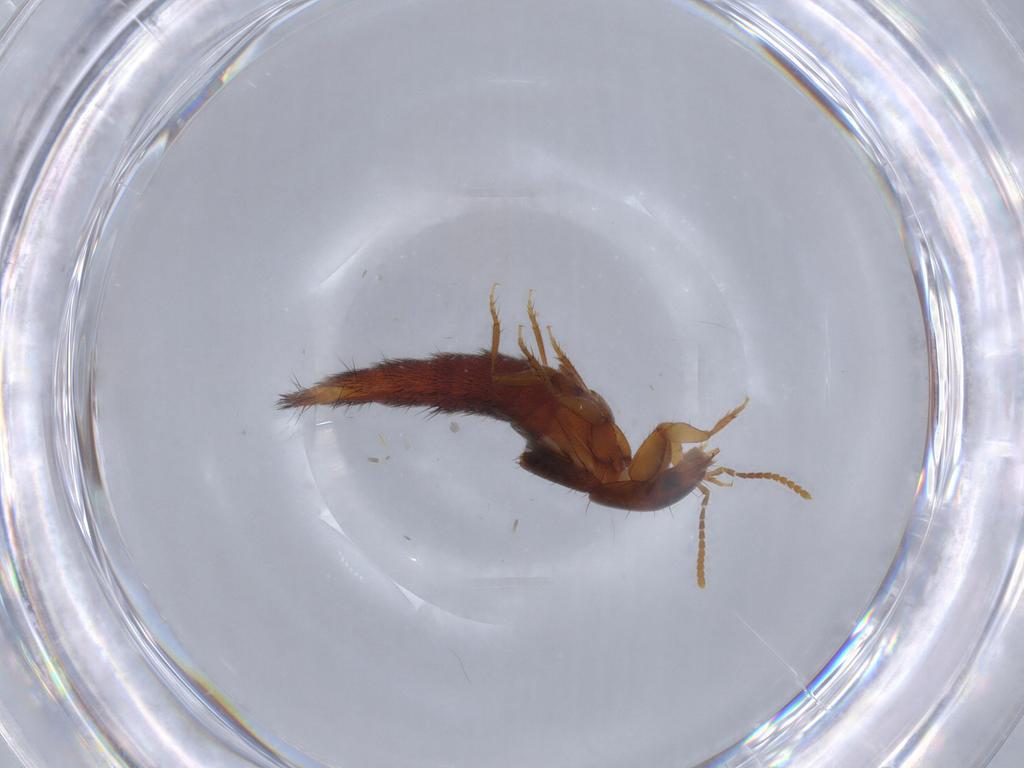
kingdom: Animalia
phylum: Arthropoda
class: Insecta
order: Coleoptera
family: Staphylinidae
